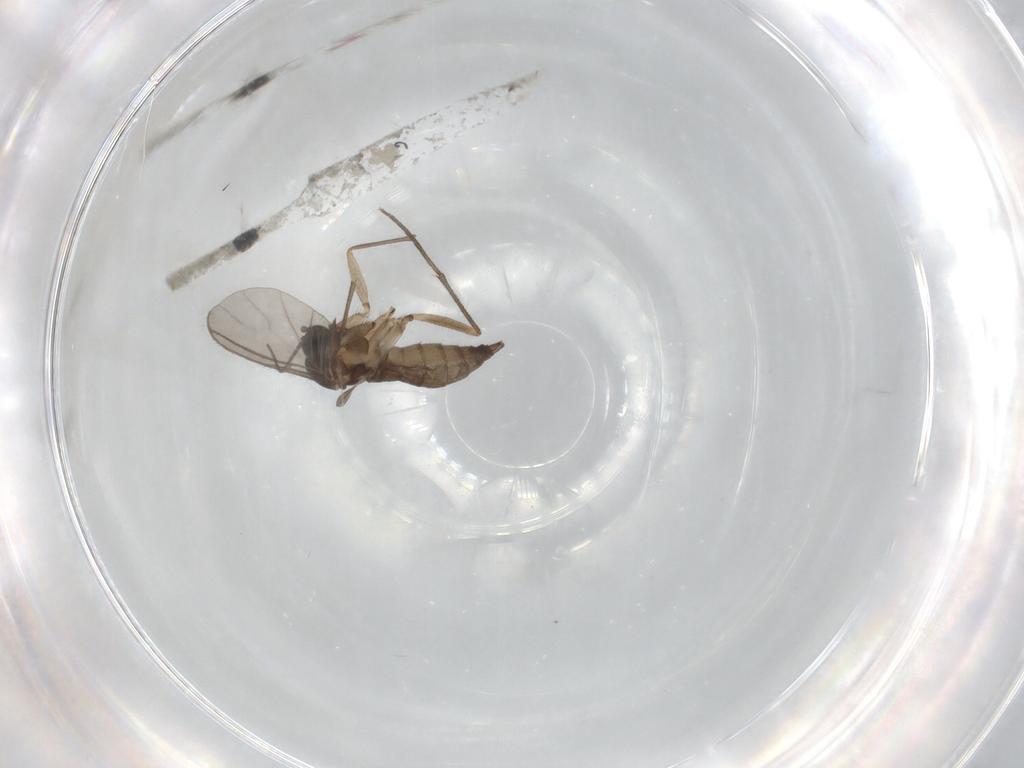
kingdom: Animalia
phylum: Arthropoda
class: Insecta
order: Diptera
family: Sciaridae
